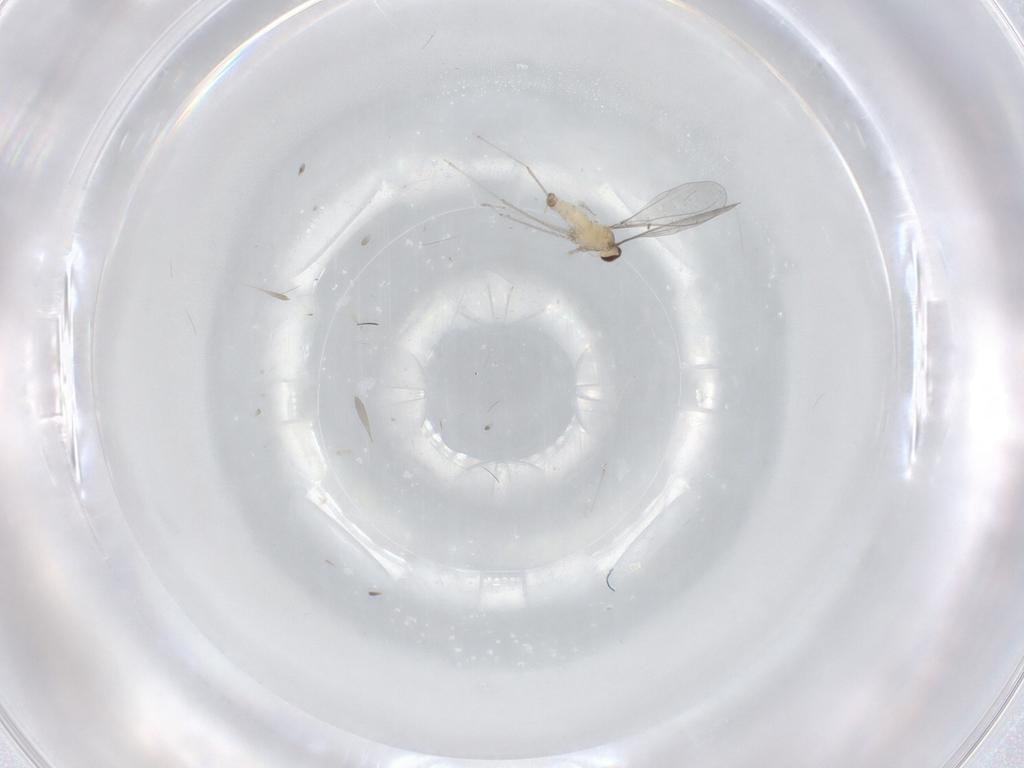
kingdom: Animalia
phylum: Arthropoda
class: Insecta
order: Diptera
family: Cecidomyiidae
